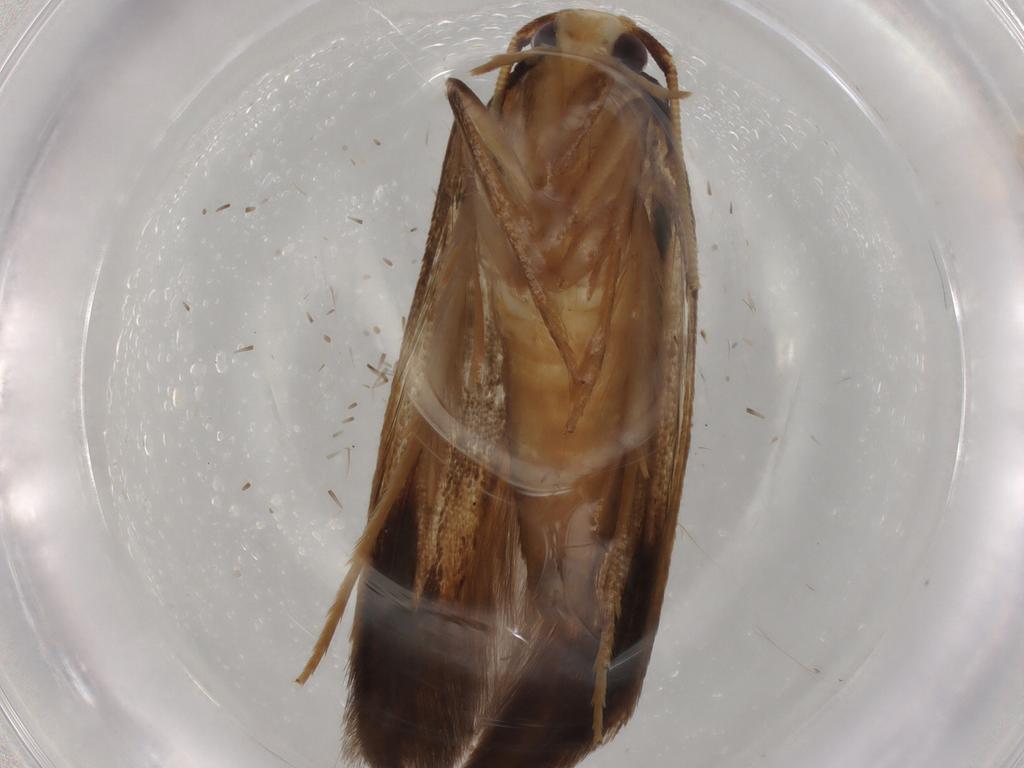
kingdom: Animalia
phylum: Arthropoda
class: Insecta
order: Lepidoptera
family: Tineidae
